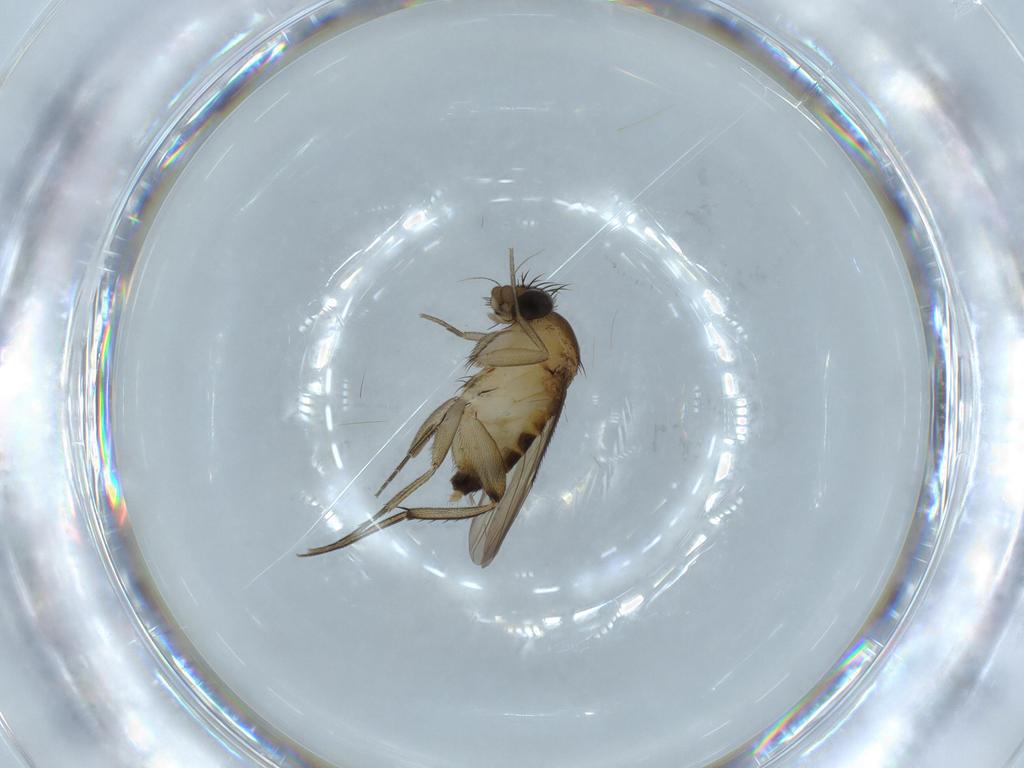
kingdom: Animalia
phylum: Arthropoda
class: Insecta
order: Diptera
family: Phoridae
